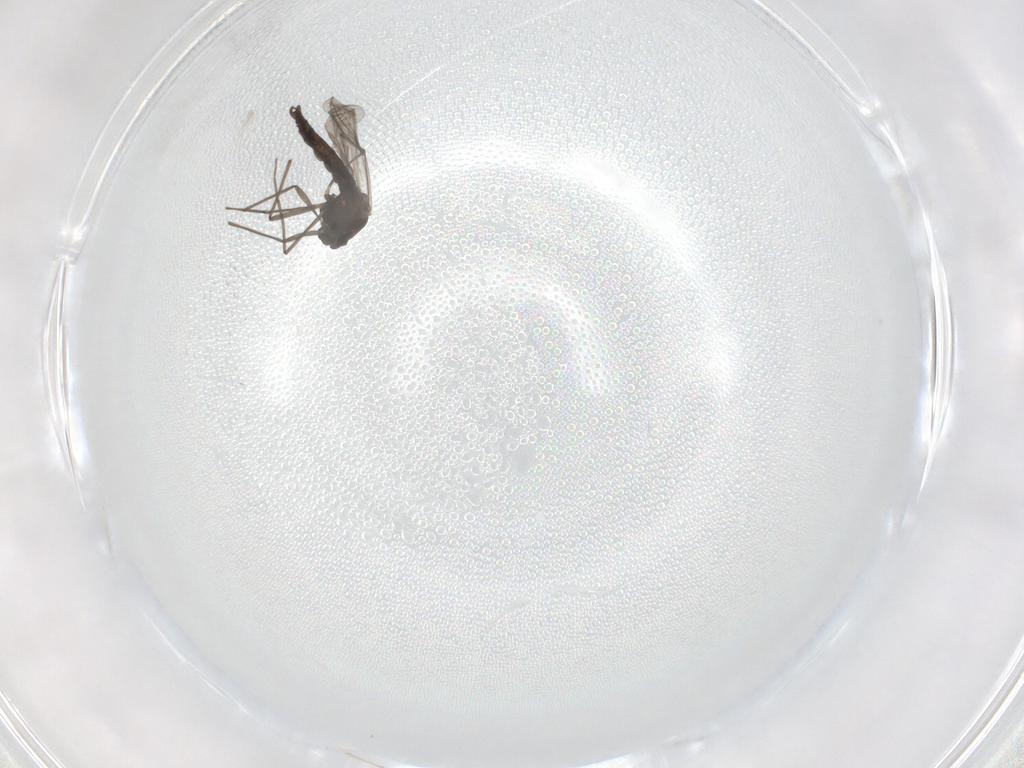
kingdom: Animalia
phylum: Arthropoda
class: Insecta
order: Diptera
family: Chironomidae
